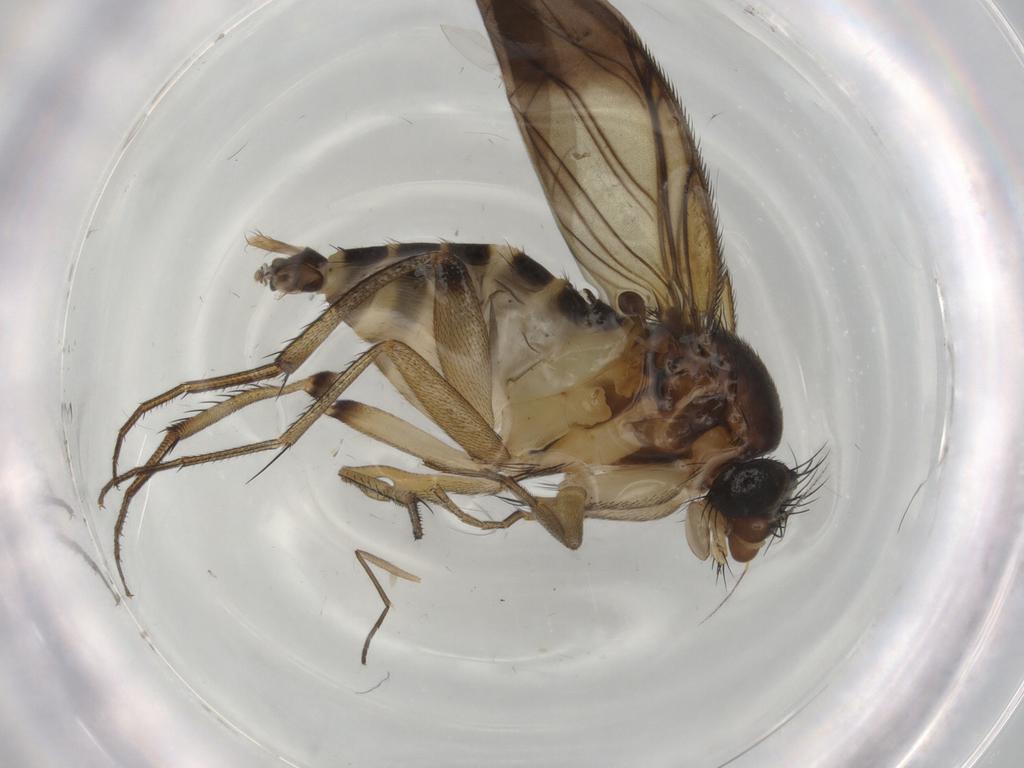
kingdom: Animalia
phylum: Arthropoda
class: Insecta
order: Diptera
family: Phoridae
